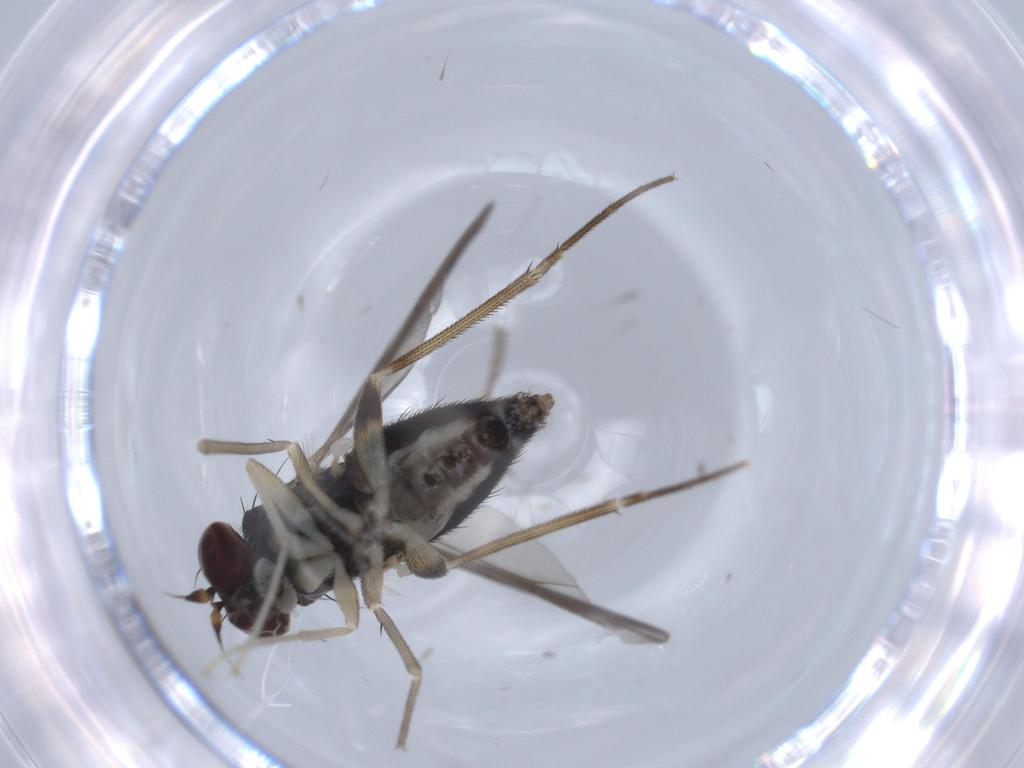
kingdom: Animalia
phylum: Arthropoda
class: Insecta
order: Diptera
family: Dolichopodidae
